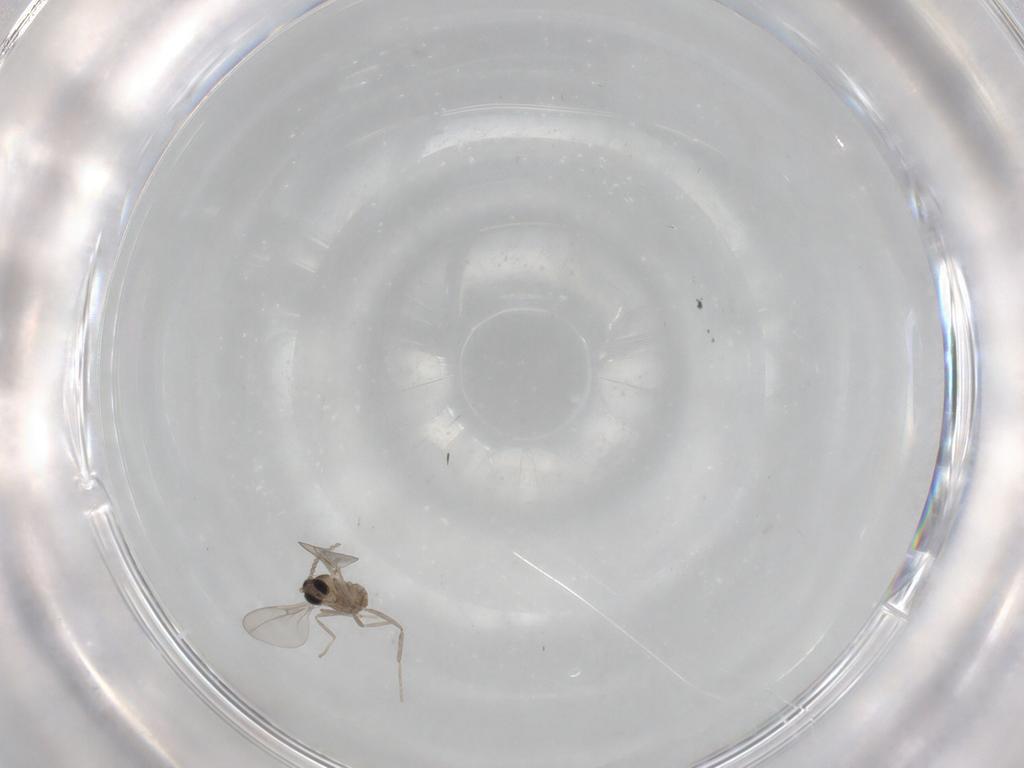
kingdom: Animalia
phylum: Arthropoda
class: Insecta
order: Diptera
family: Cecidomyiidae
